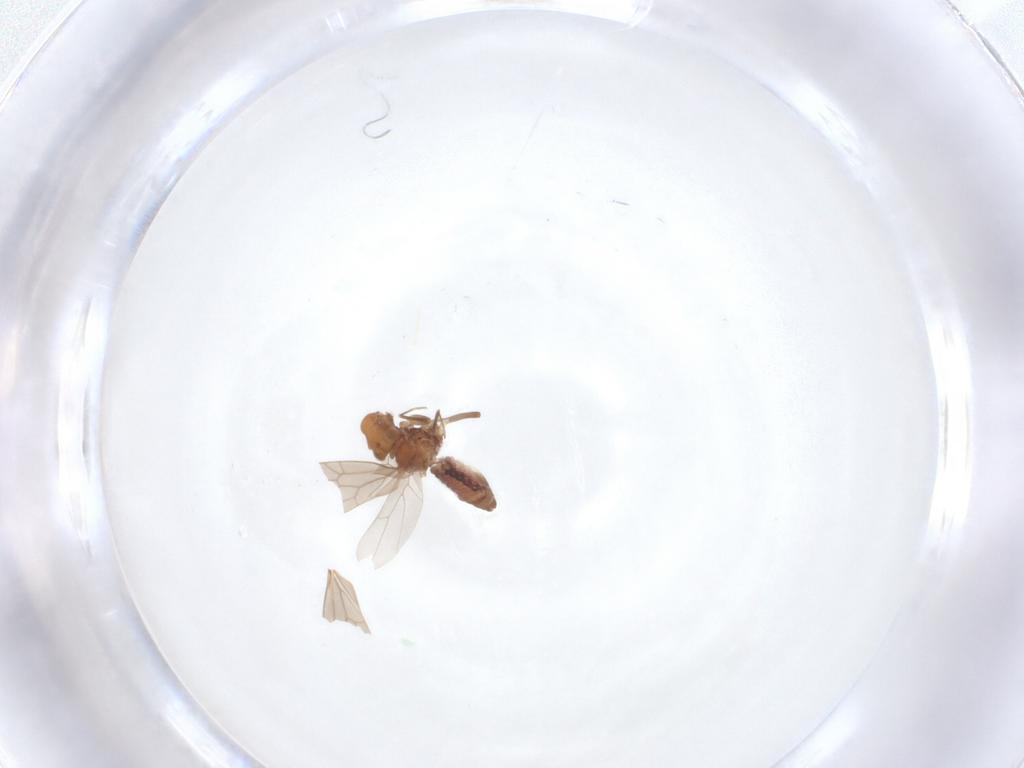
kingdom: Animalia
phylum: Arthropoda
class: Insecta
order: Psocodea
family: Lepidopsocidae
